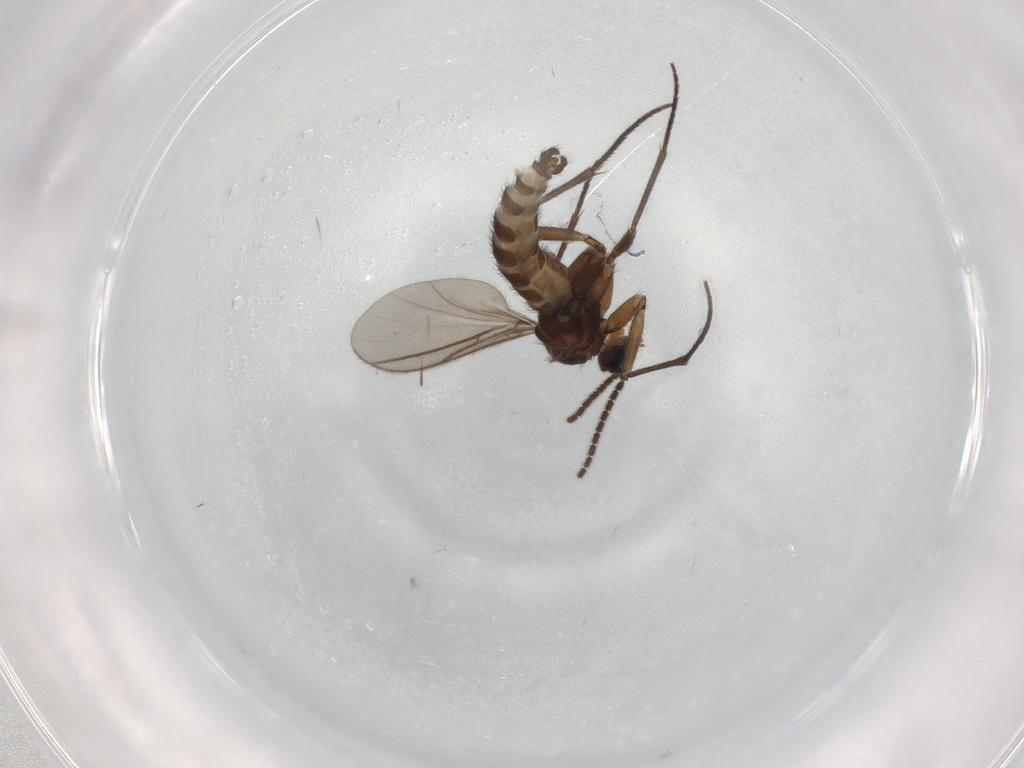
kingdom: Animalia
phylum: Arthropoda
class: Insecta
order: Diptera
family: Sciaridae
